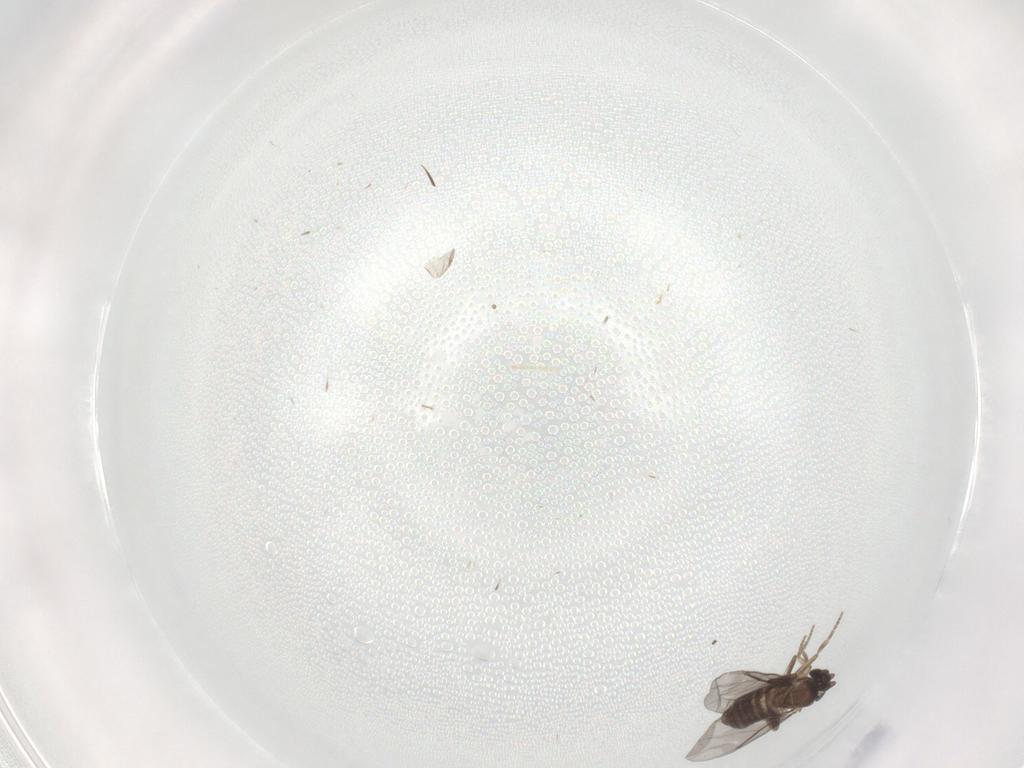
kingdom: Animalia
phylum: Arthropoda
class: Insecta
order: Diptera
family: Chironomidae
